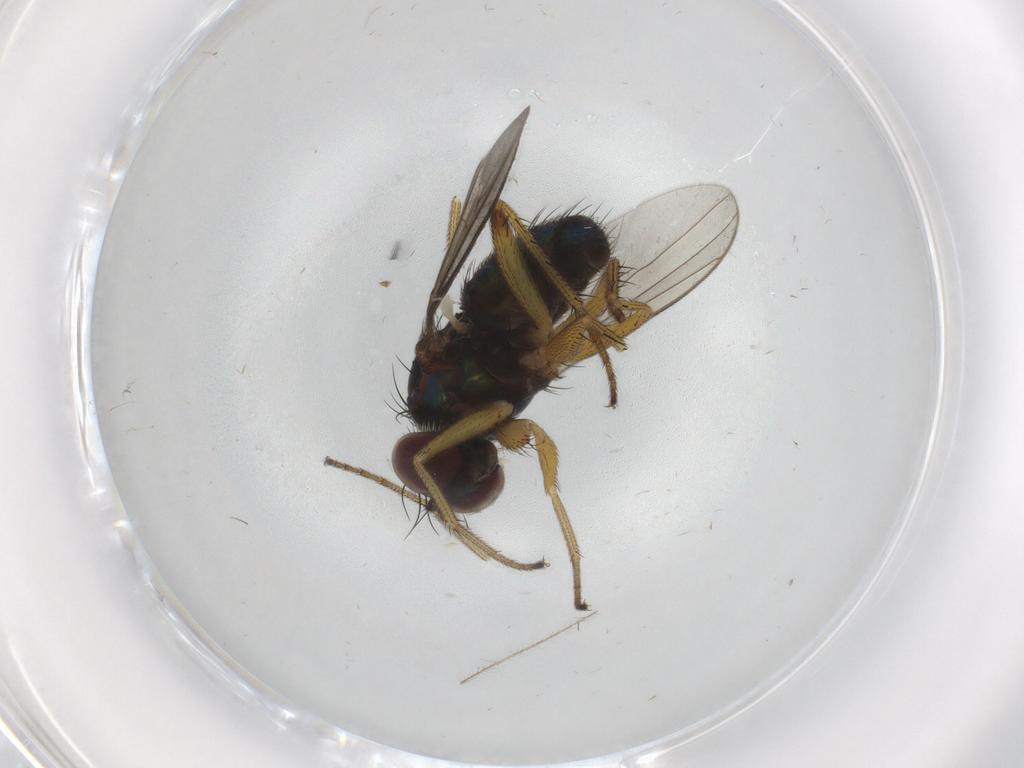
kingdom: Animalia
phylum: Arthropoda
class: Insecta
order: Diptera
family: Dolichopodidae
